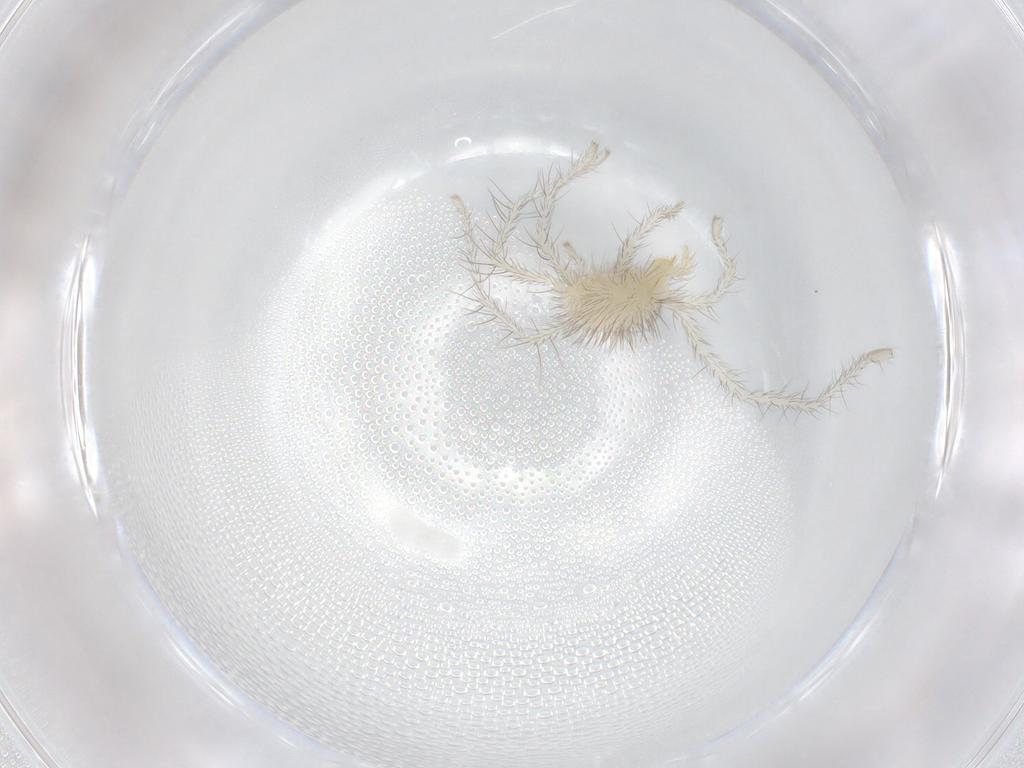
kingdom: Animalia
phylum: Arthropoda
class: Arachnida
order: Trombidiformes
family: Erythraeidae
